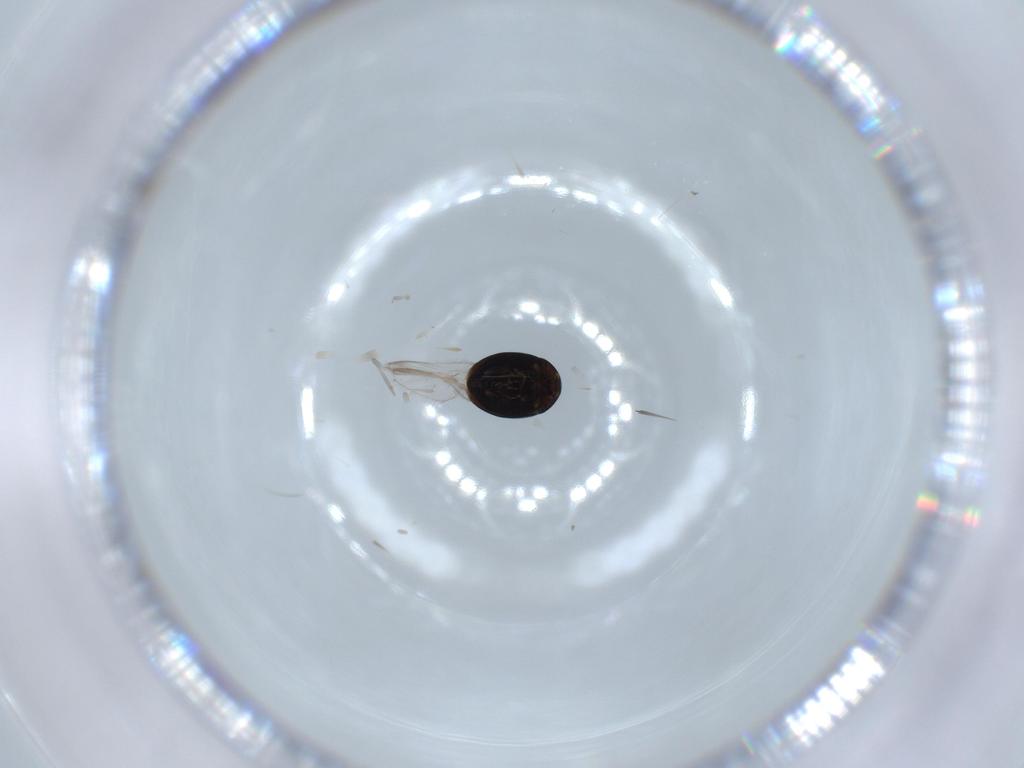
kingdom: Animalia
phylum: Arthropoda
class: Insecta
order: Coleoptera
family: Corylophidae
